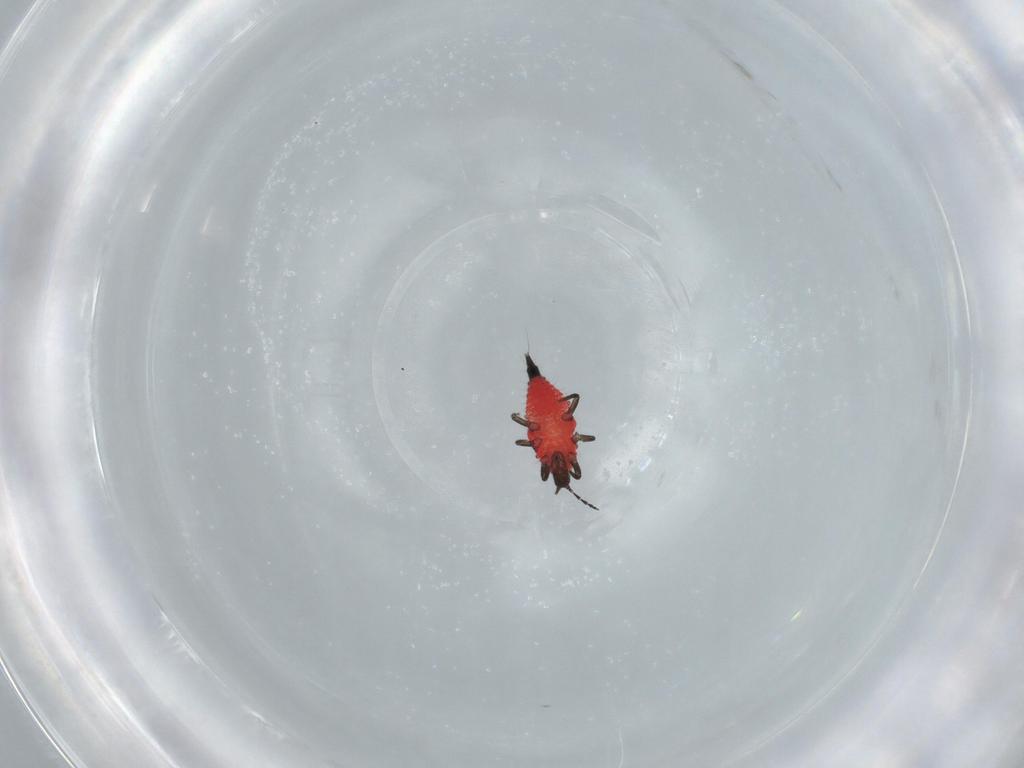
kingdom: Animalia
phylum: Arthropoda
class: Insecta
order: Thysanoptera
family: Phlaeothripidae
